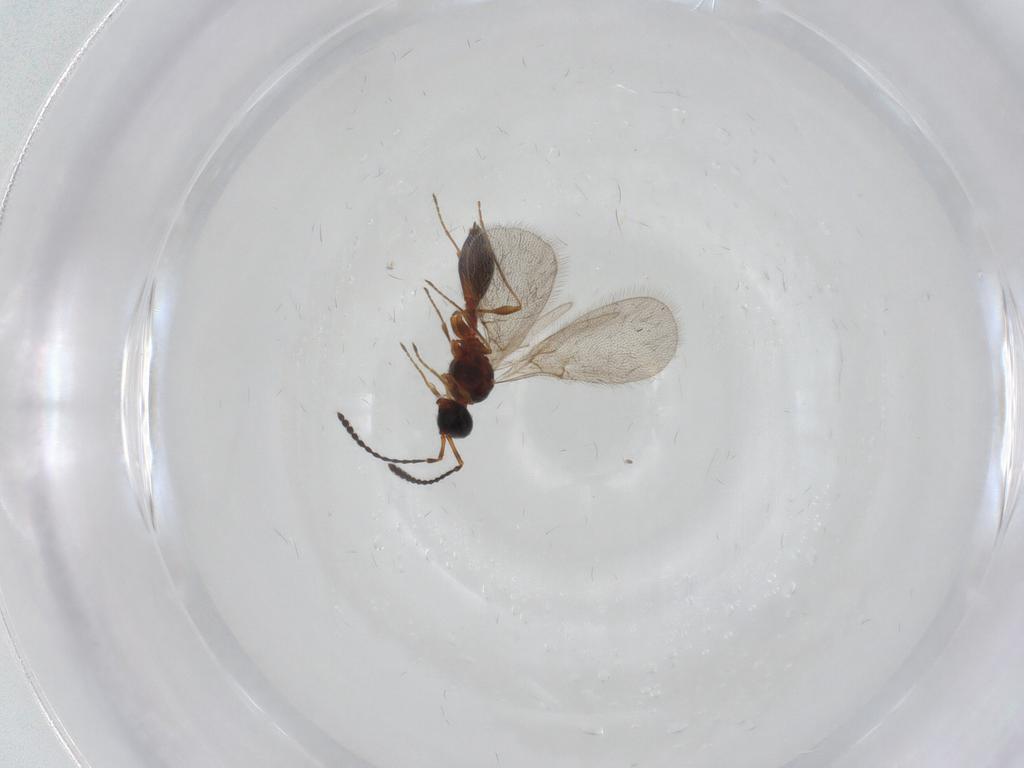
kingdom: Animalia
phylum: Arthropoda
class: Insecta
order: Hymenoptera
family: Diapriidae
